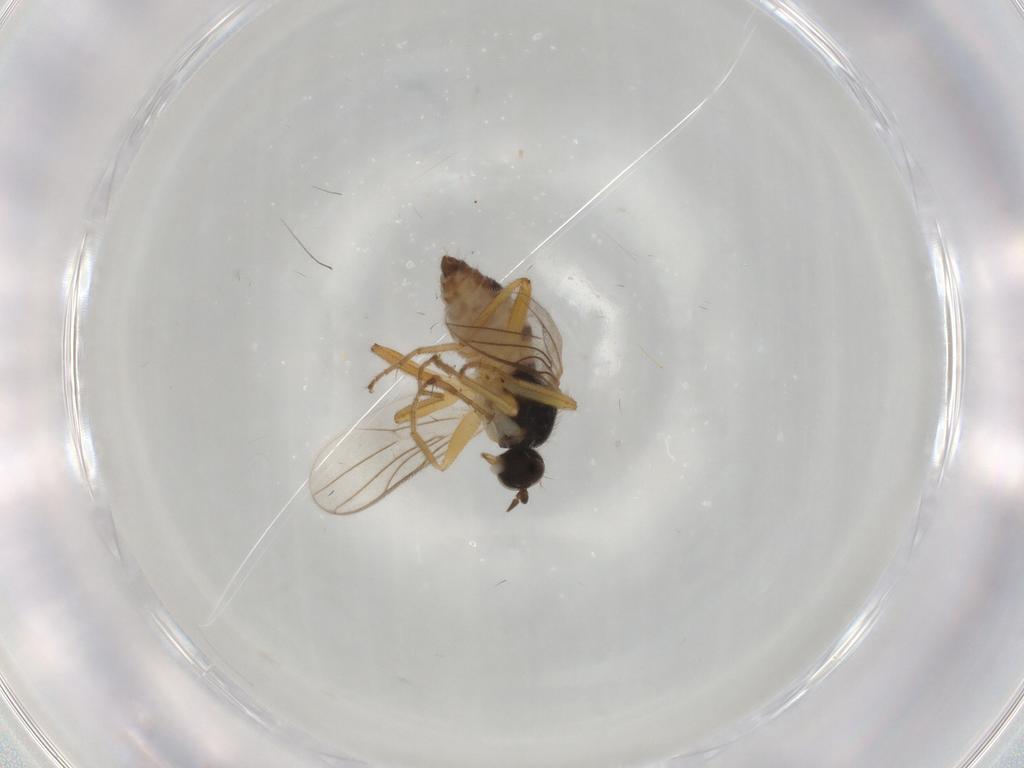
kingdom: Animalia
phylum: Arthropoda
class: Insecta
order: Diptera
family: Hybotidae
